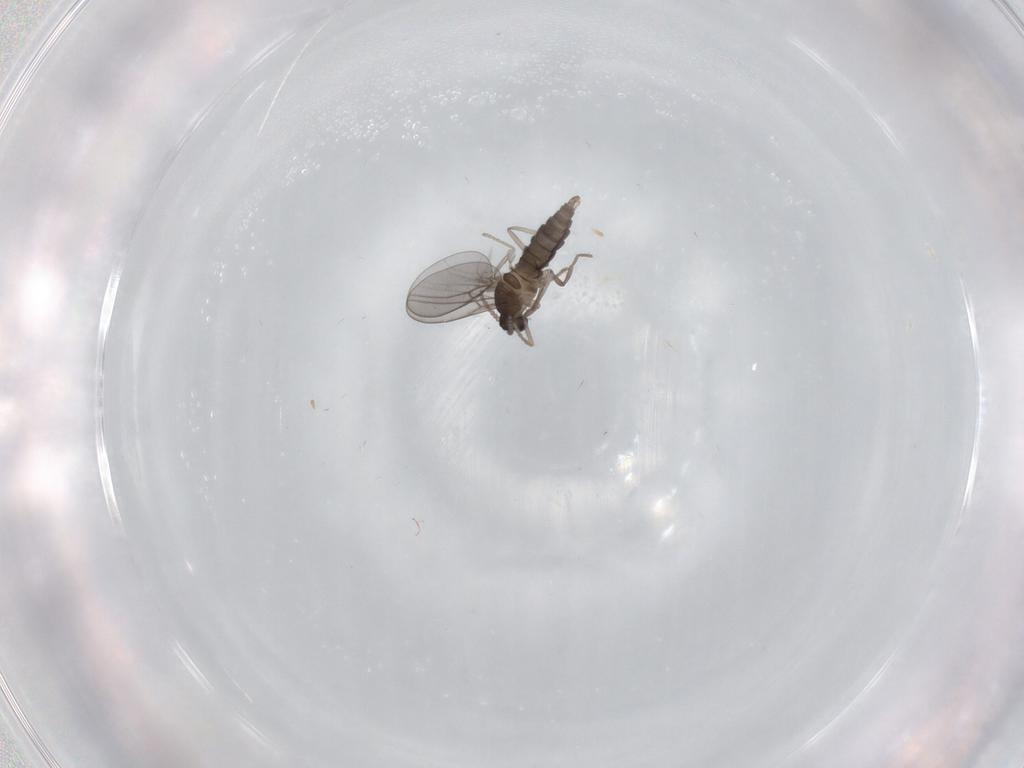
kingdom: Animalia
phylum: Arthropoda
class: Insecta
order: Diptera
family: Cecidomyiidae
